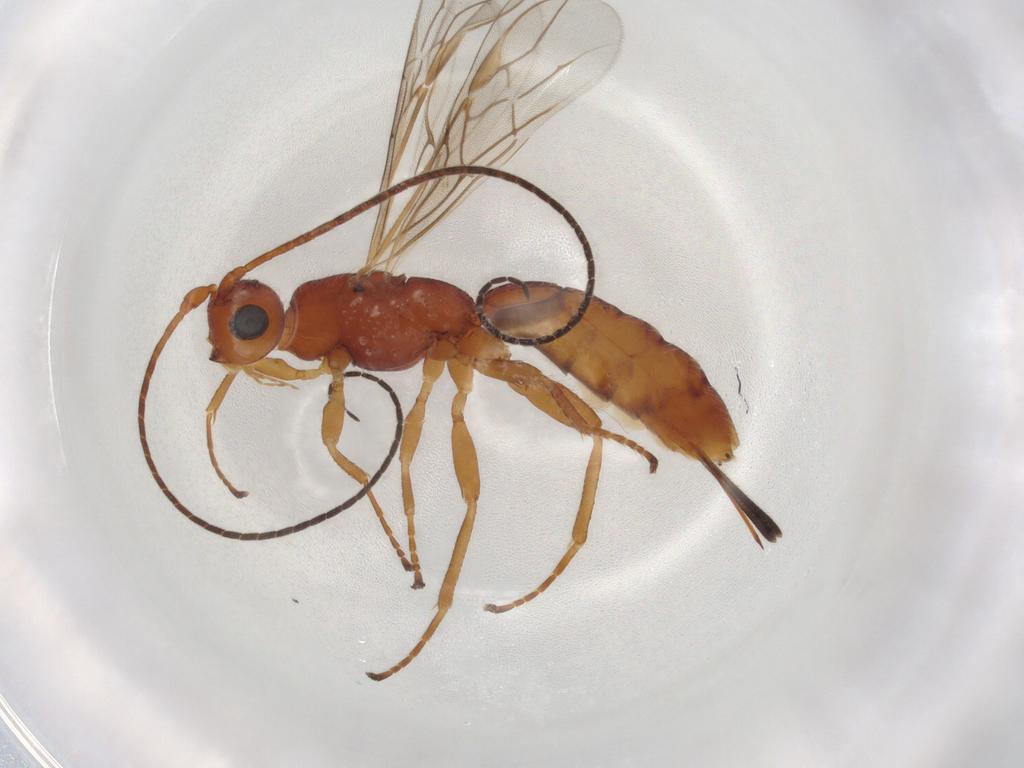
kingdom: Animalia
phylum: Arthropoda
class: Insecta
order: Hymenoptera
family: Braconidae
